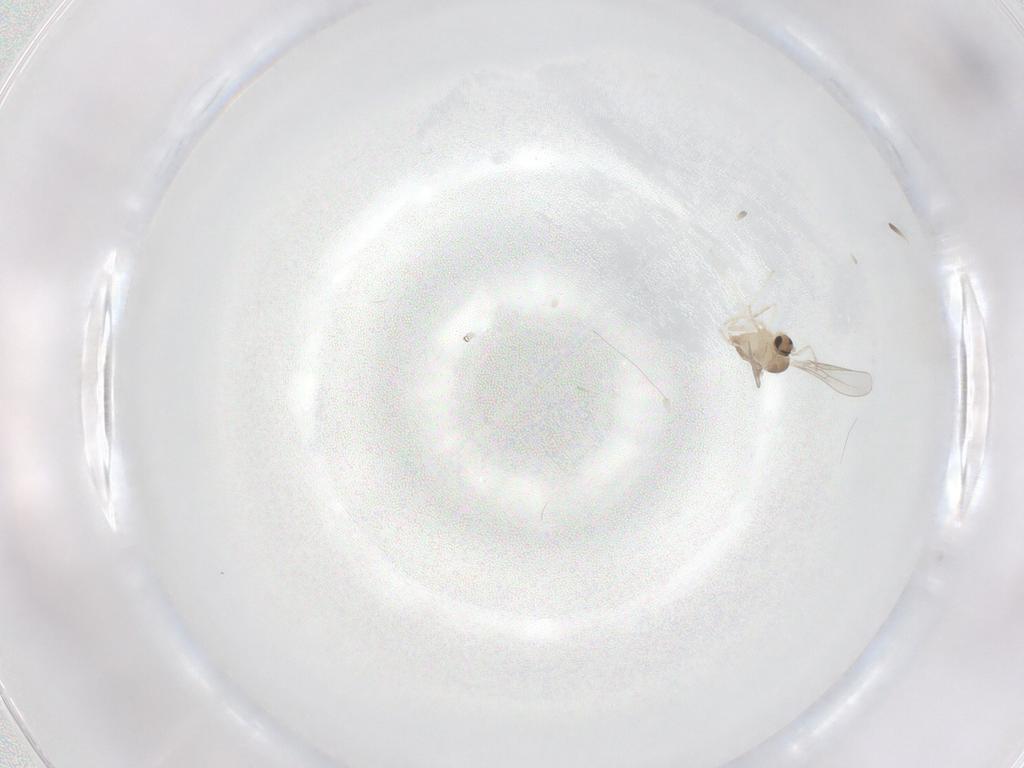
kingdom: Animalia
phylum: Arthropoda
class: Insecta
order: Diptera
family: Cecidomyiidae
